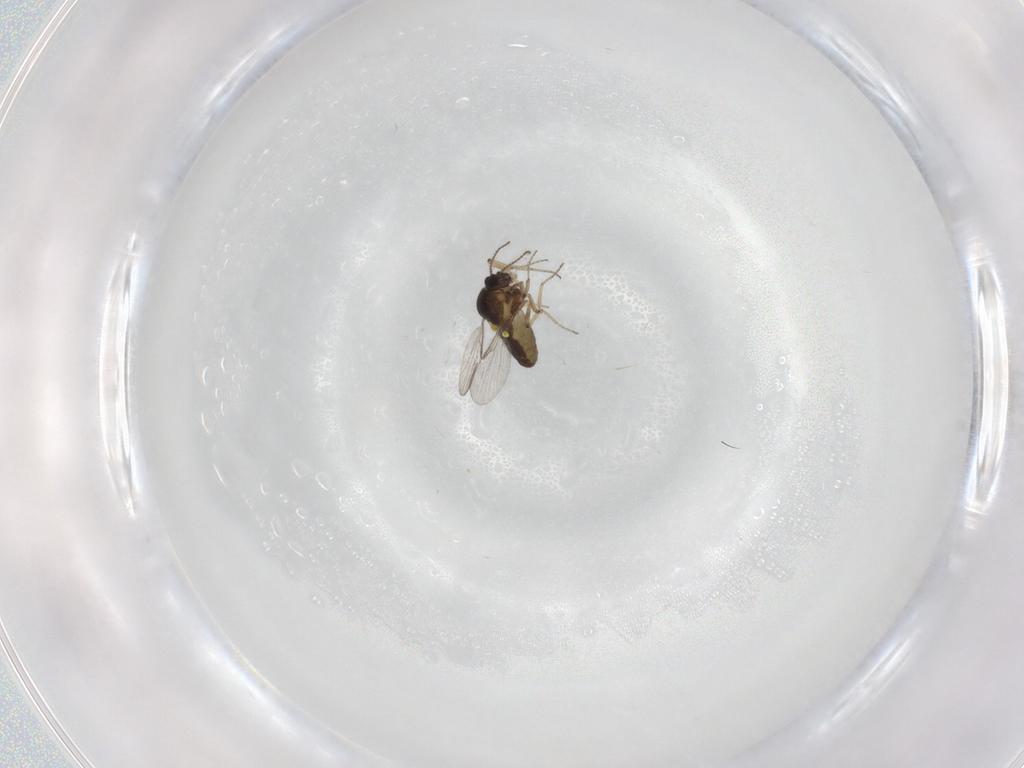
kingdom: Animalia
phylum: Arthropoda
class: Insecta
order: Diptera
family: Ceratopogonidae
